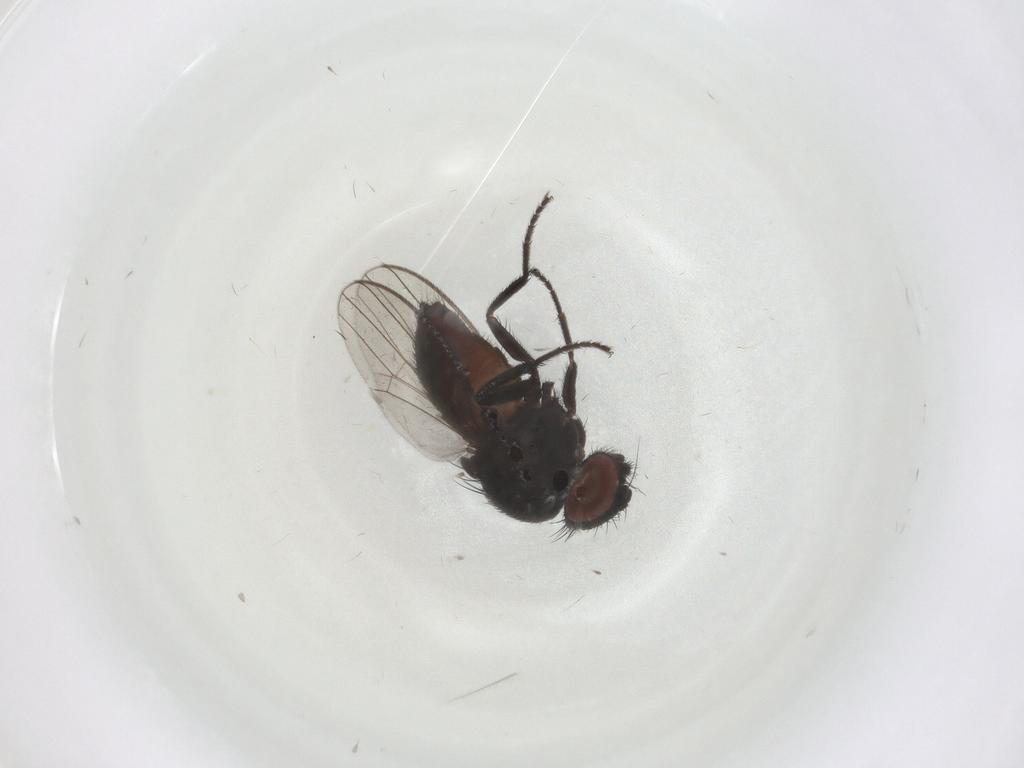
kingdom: Animalia
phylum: Arthropoda
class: Insecta
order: Diptera
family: Milichiidae
